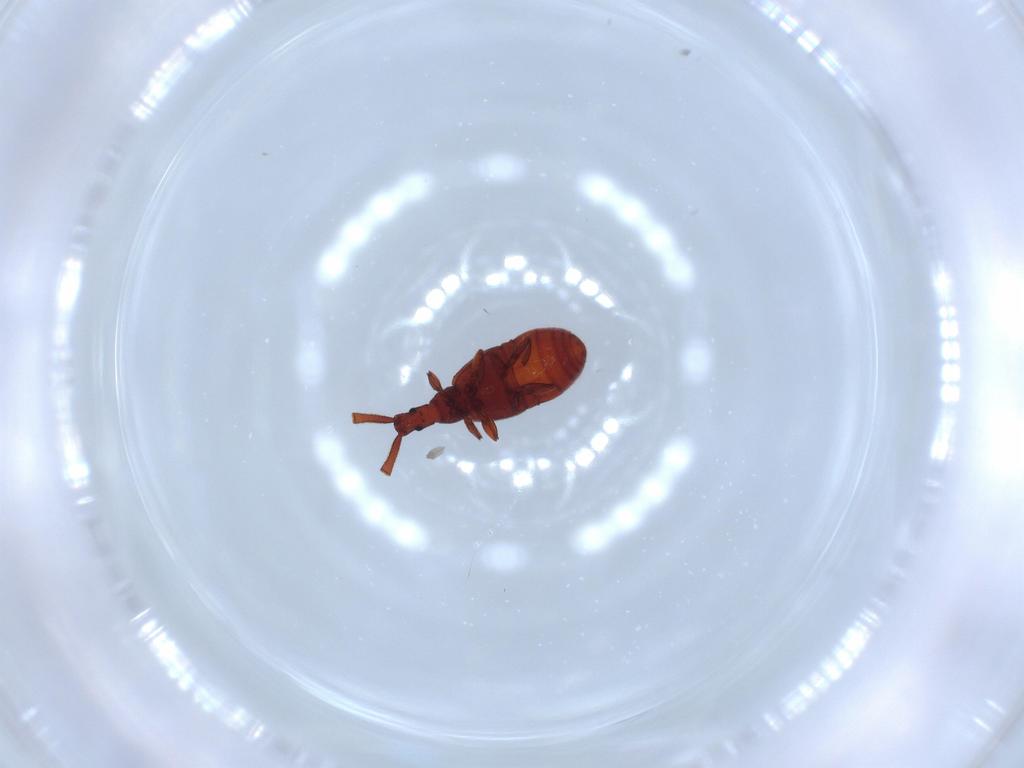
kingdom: Animalia
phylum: Arthropoda
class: Insecta
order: Coleoptera
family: Staphylinidae
